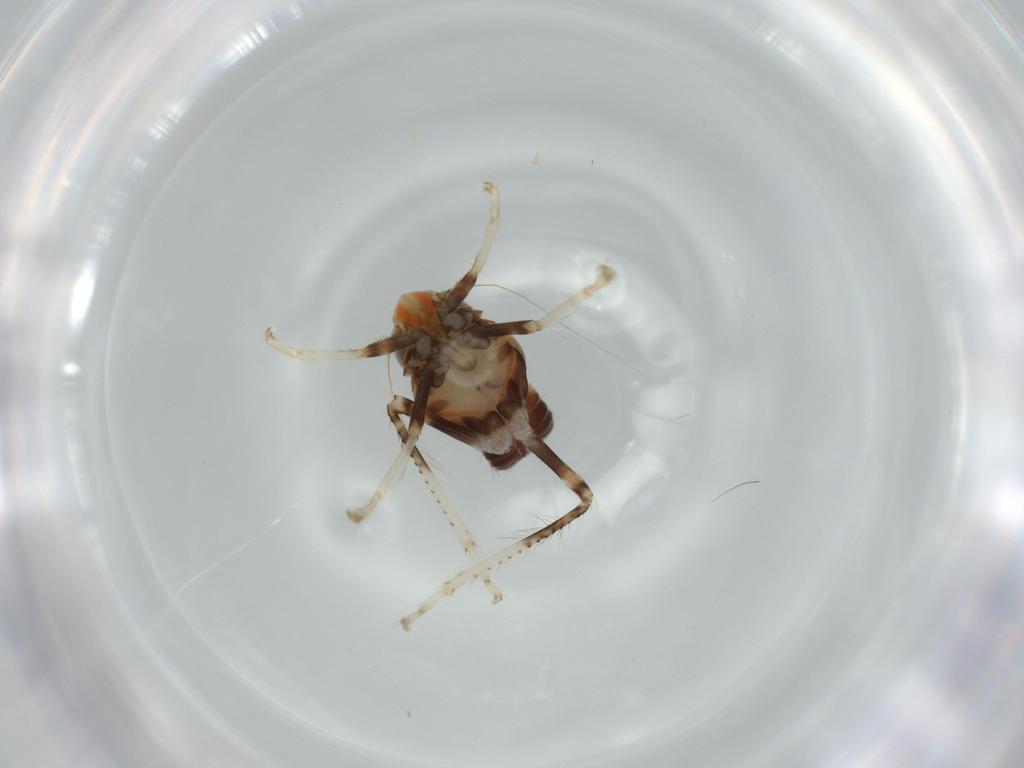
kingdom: Animalia
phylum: Arthropoda
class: Insecta
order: Hemiptera
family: Cicadellidae
